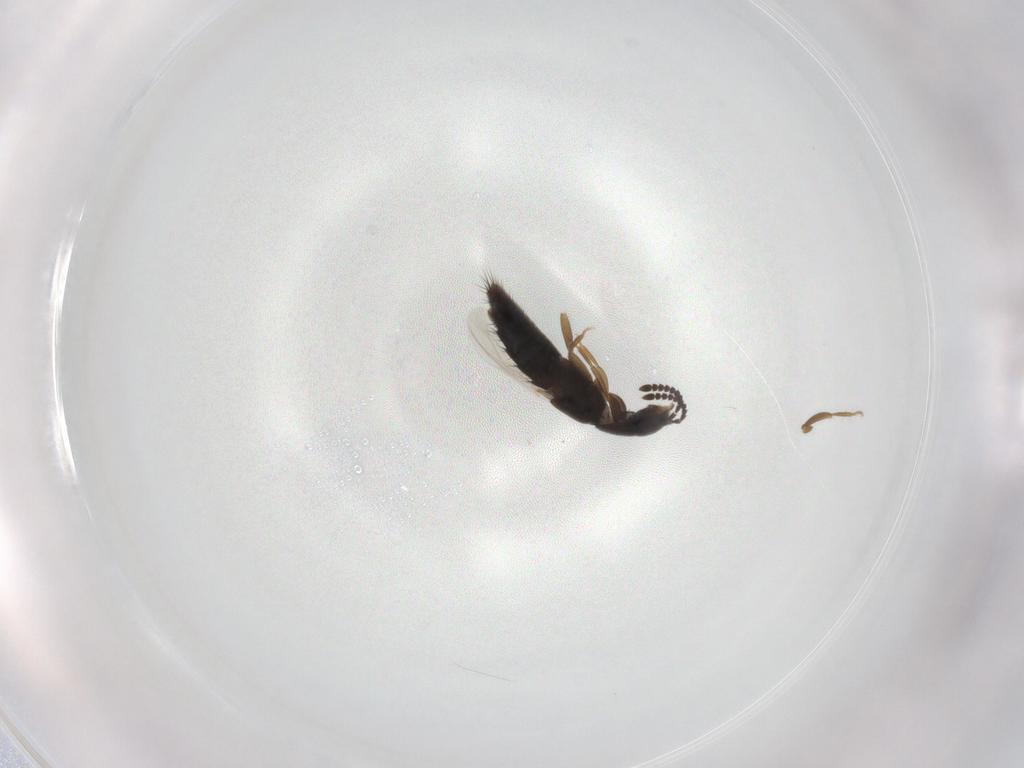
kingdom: Animalia
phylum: Arthropoda
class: Insecta
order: Coleoptera
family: Staphylinidae
